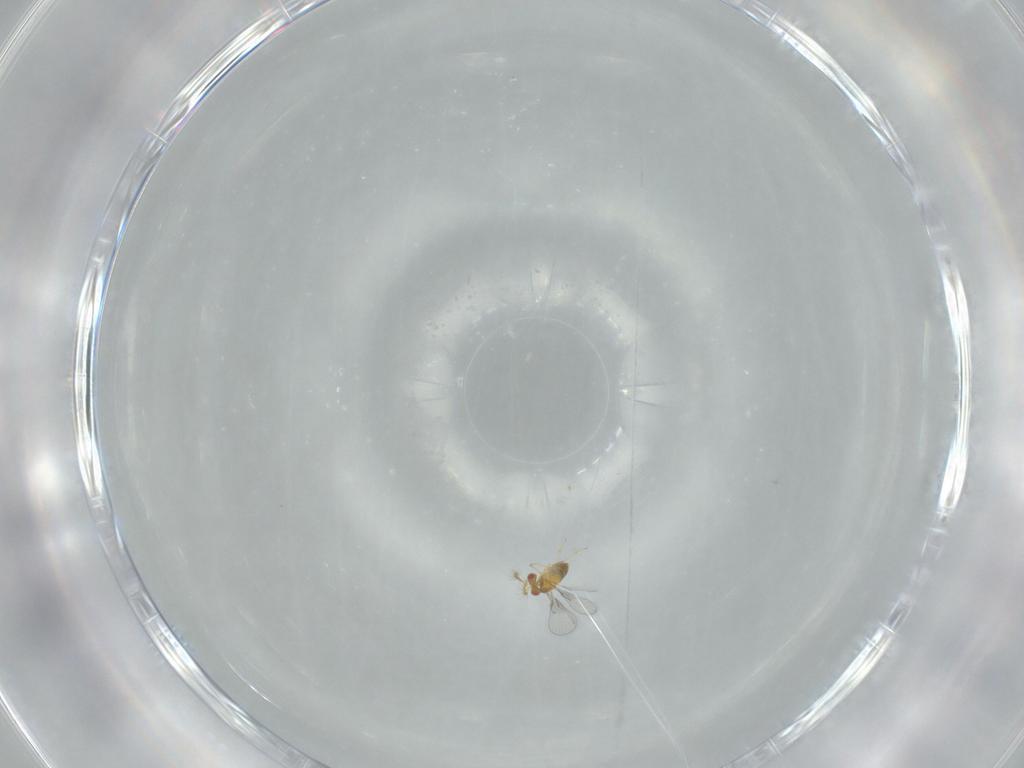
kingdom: Animalia
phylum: Arthropoda
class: Insecta
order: Hymenoptera
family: Trichogrammatidae
